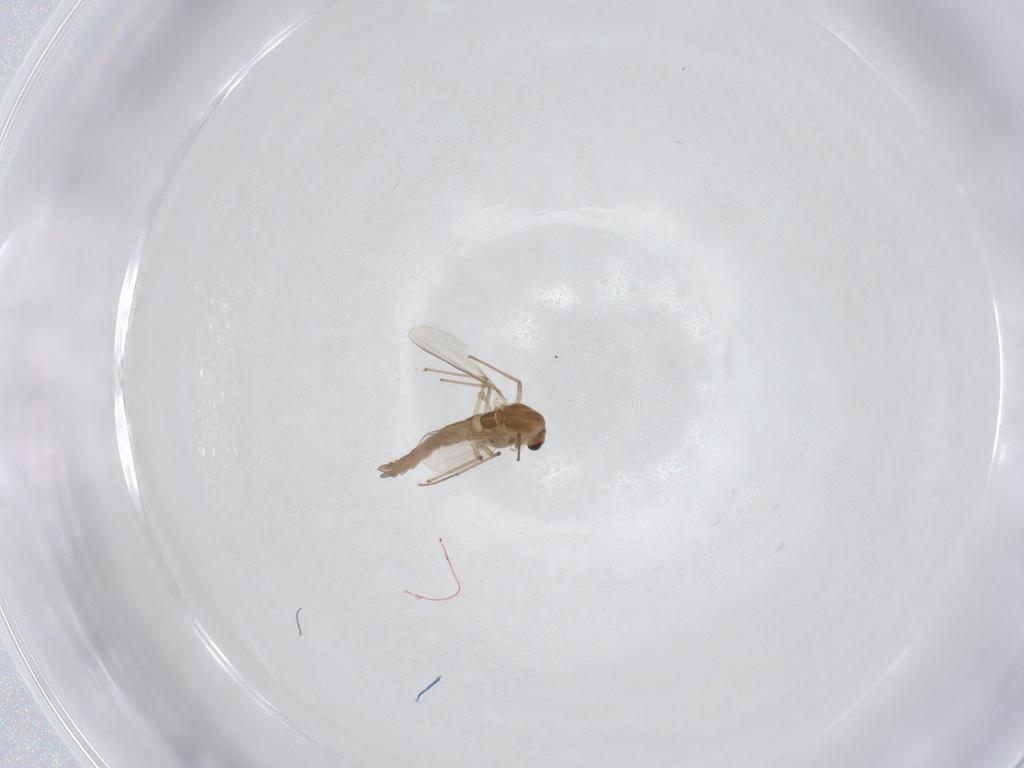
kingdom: Animalia
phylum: Arthropoda
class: Insecta
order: Diptera
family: Chironomidae
